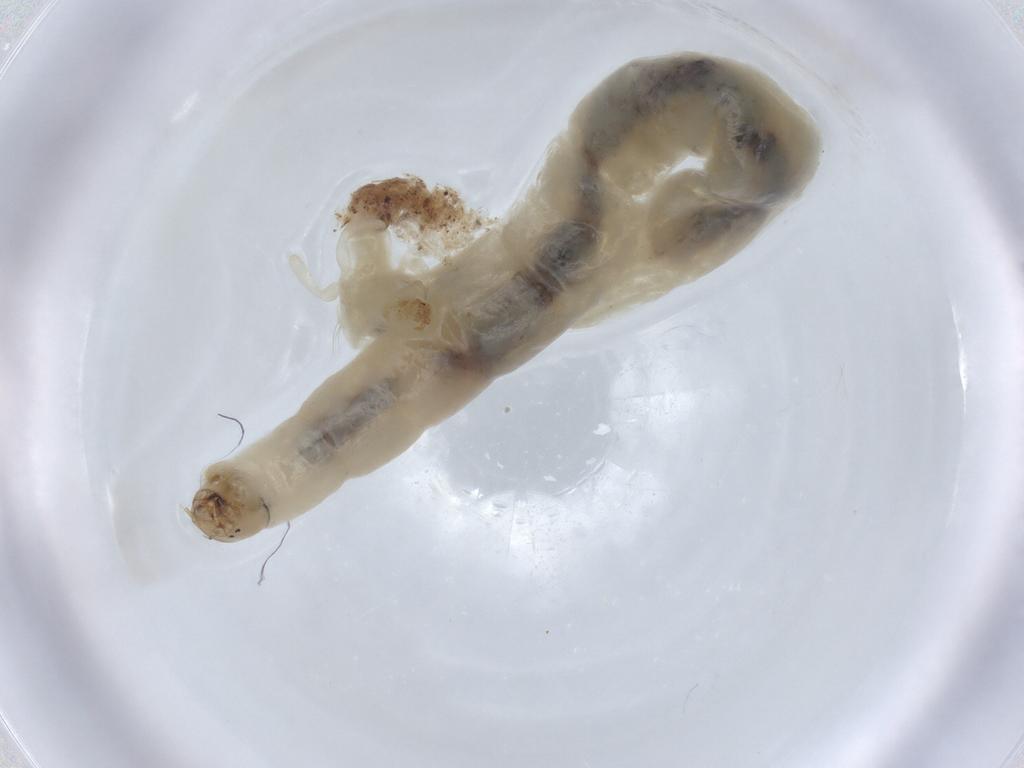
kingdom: Animalia
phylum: Arthropoda
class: Insecta
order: Diptera
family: Chironomidae
